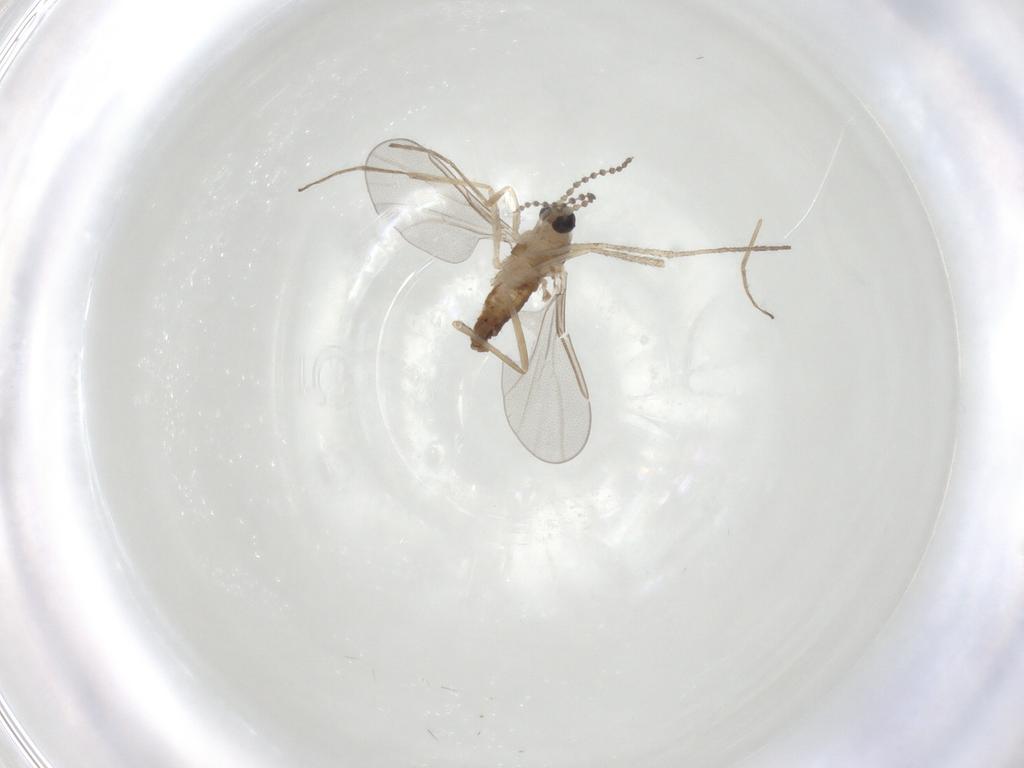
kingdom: Animalia
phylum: Arthropoda
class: Insecta
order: Diptera
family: Cecidomyiidae
